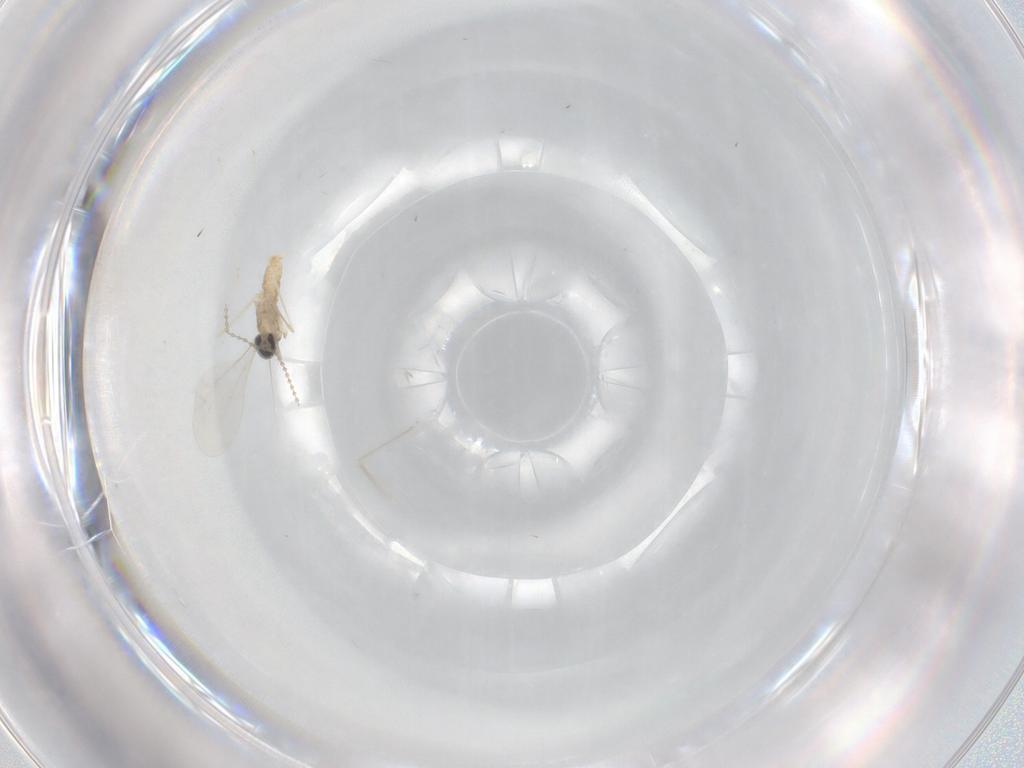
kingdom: Animalia
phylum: Arthropoda
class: Insecta
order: Diptera
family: Cecidomyiidae
